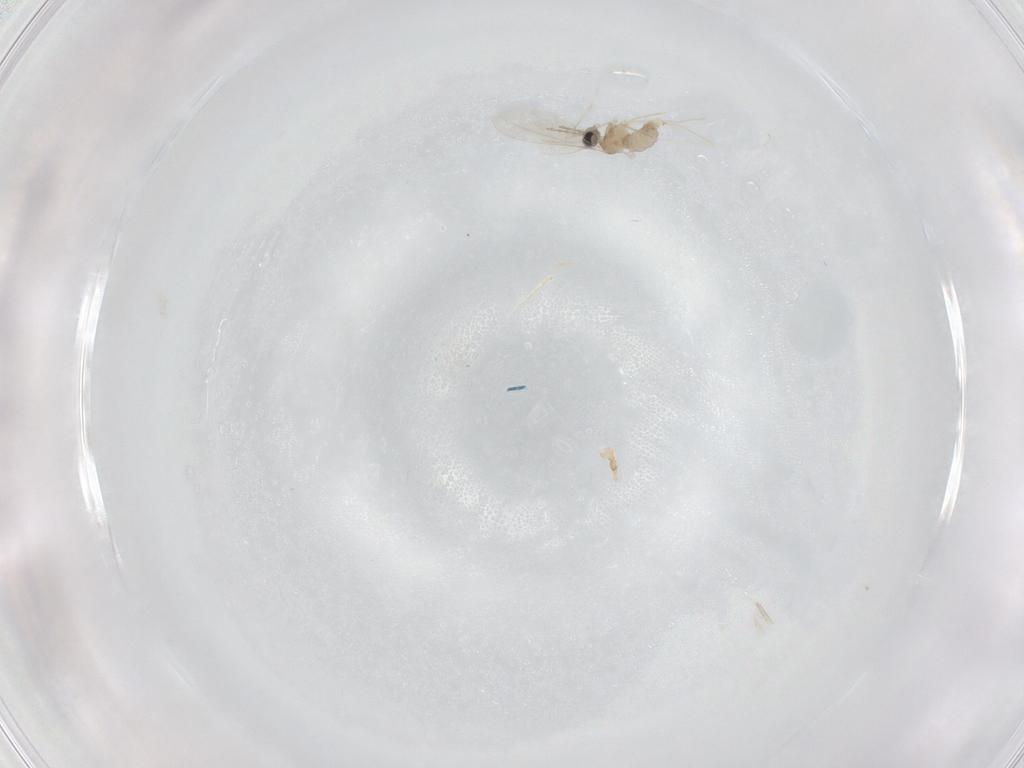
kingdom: Animalia
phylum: Arthropoda
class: Insecta
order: Diptera
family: Cecidomyiidae
